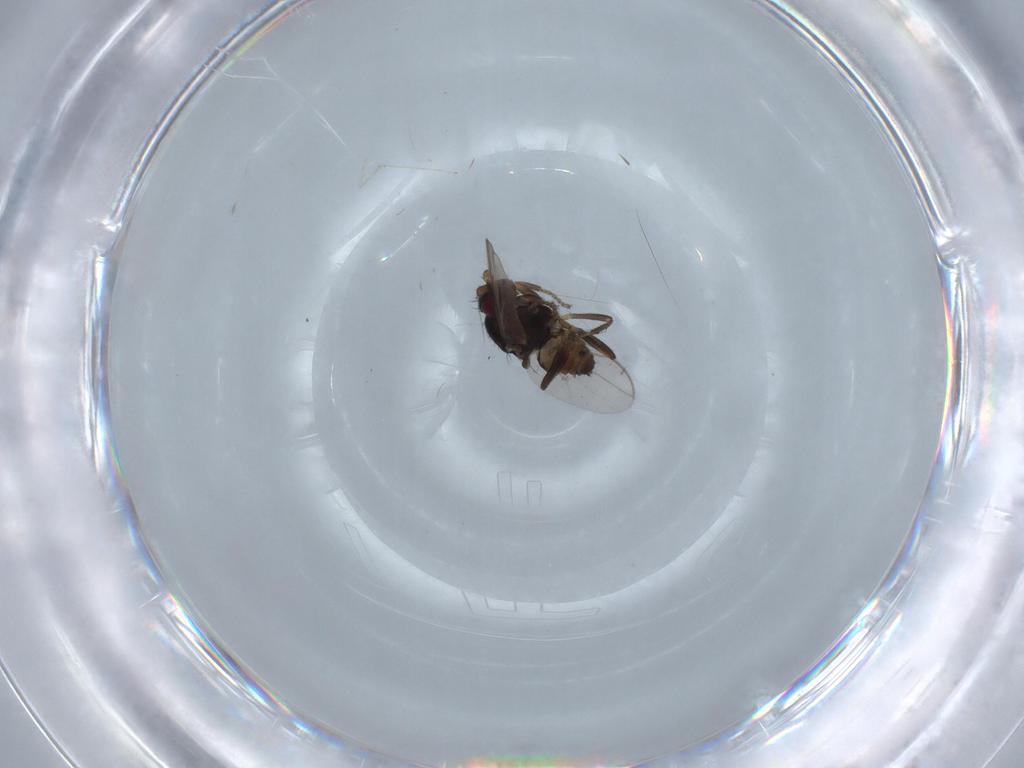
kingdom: Animalia
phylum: Arthropoda
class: Insecta
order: Diptera
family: Sphaeroceridae
